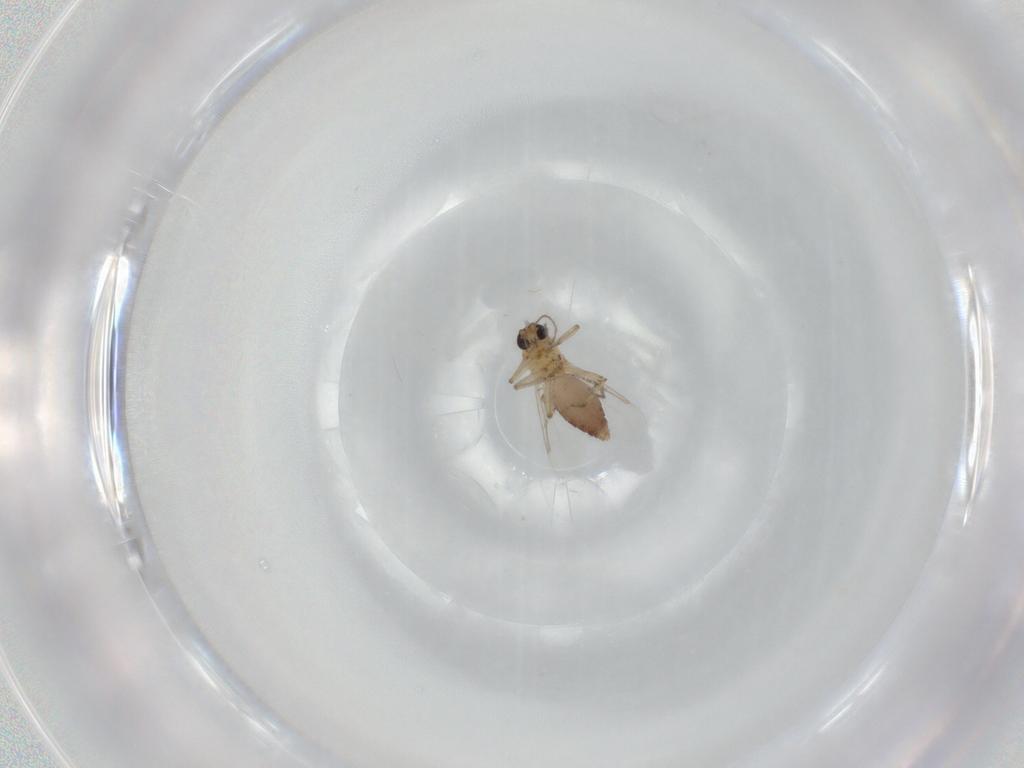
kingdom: Animalia
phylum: Arthropoda
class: Insecta
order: Diptera
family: Ceratopogonidae
